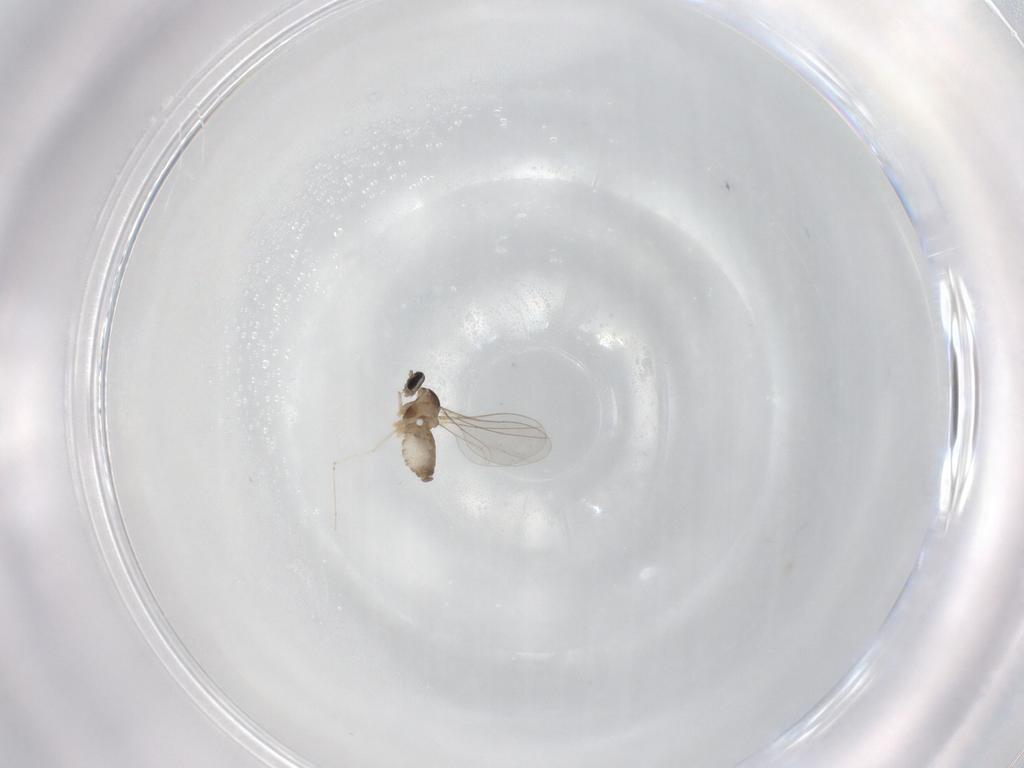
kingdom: Animalia
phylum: Arthropoda
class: Insecta
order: Diptera
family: Cecidomyiidae
